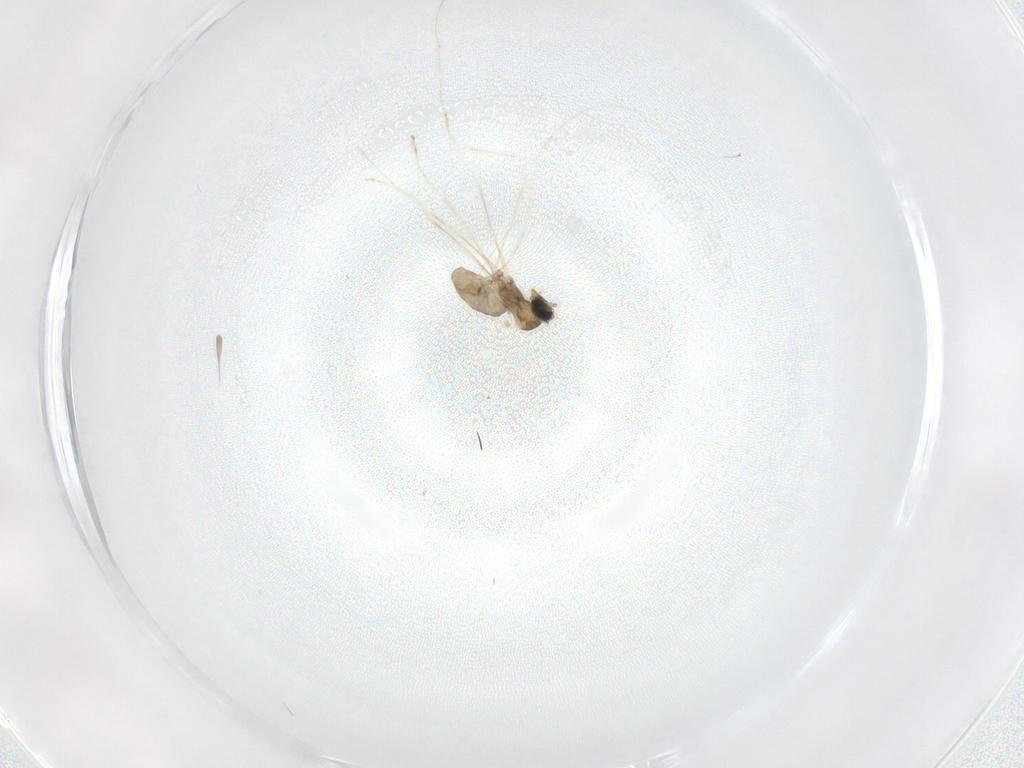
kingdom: Animalia
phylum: Arthropoda
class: Insecta
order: Diptera
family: Cecidomyiidae
